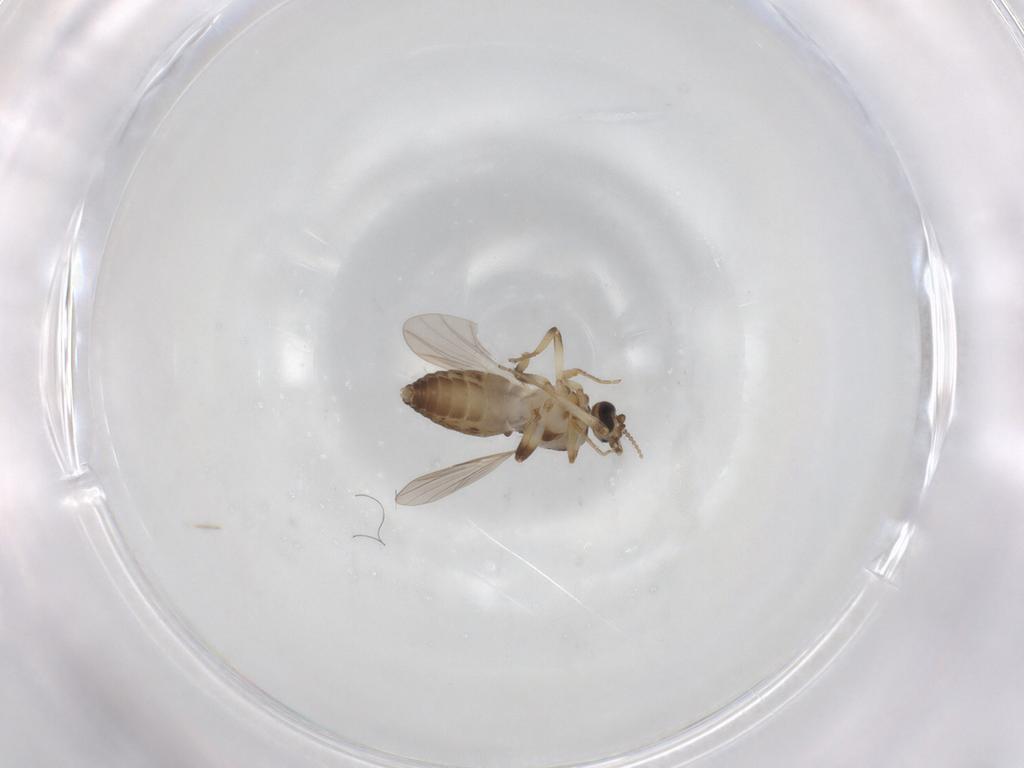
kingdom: Animalia
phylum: Arthropoda
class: Insecta
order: Diptera
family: Ceratopogonidae
